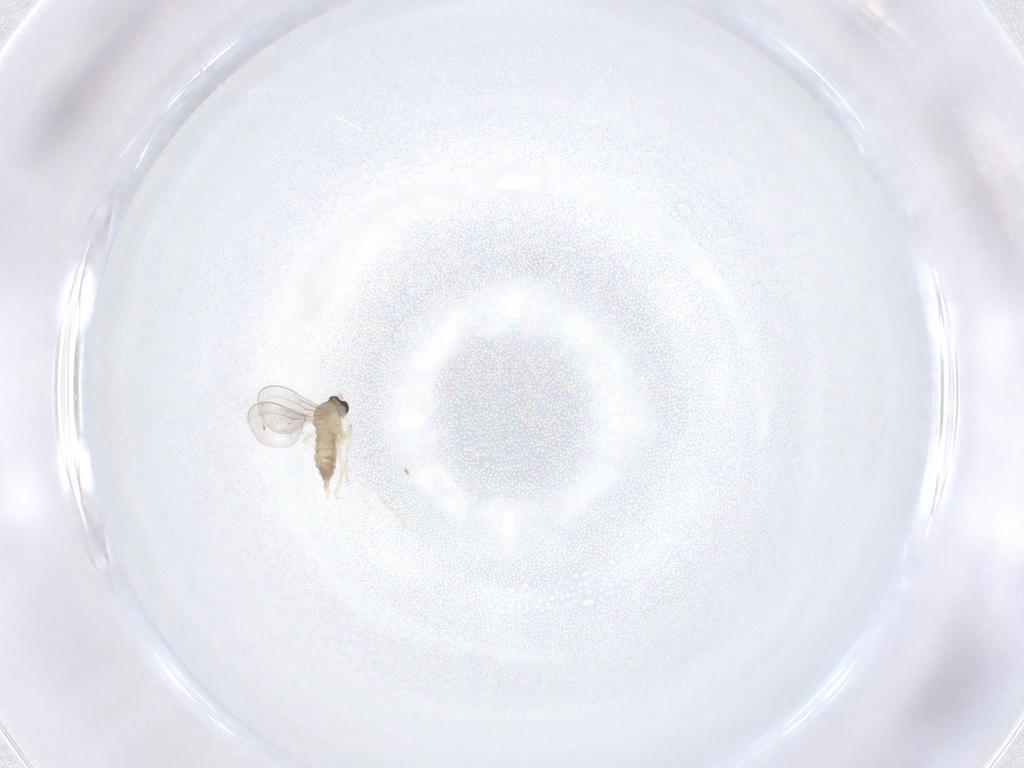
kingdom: Animalia
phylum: Arthropoda
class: Insecta
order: Diptera
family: Cecidomyiidae
